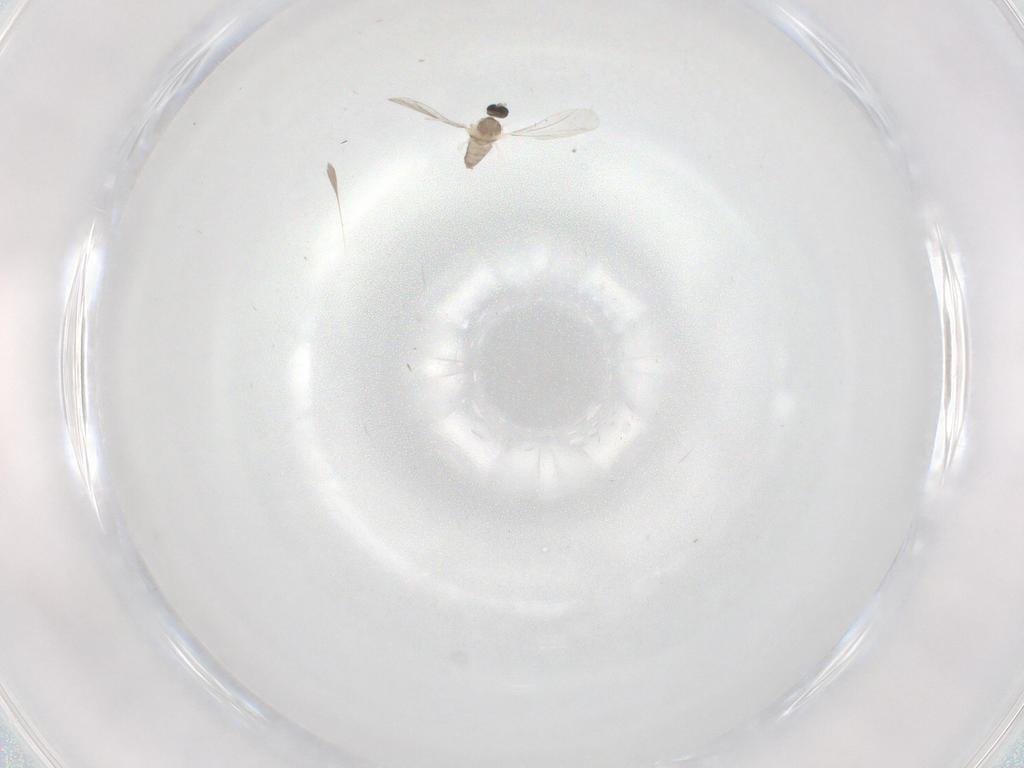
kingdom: Animalia
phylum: Arthropoda
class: Insecta
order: Diptera
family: Cecidomyiidae
